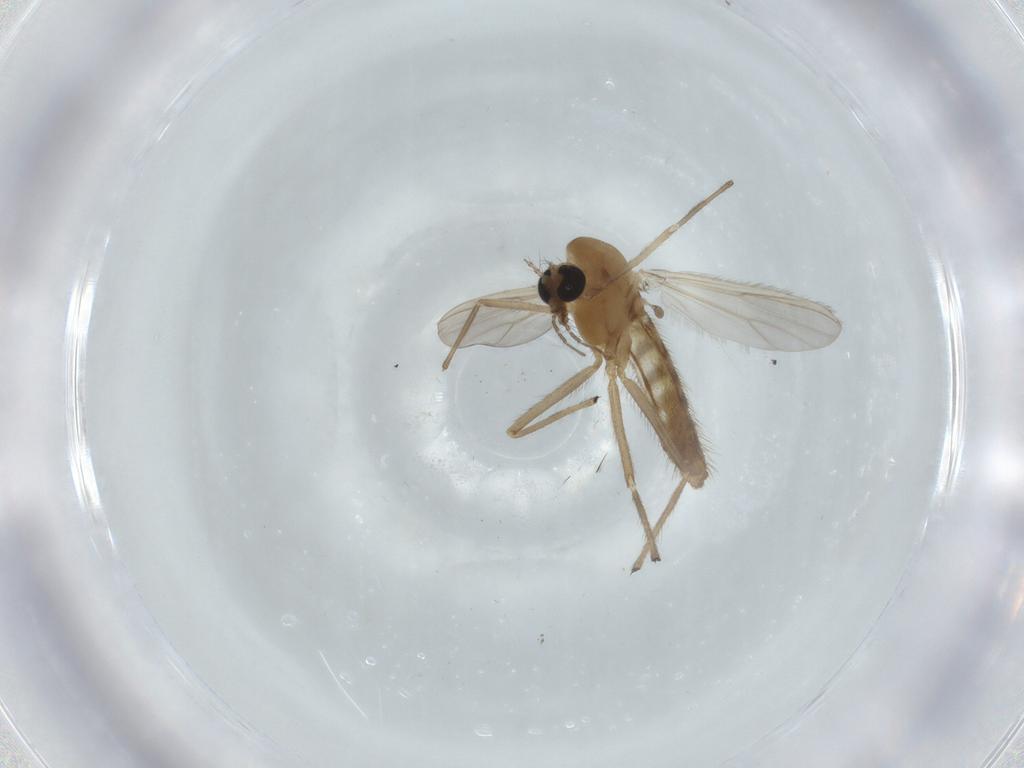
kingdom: Animalia
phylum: Arthropoda
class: Insecta
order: Diptera
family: Chironomidae
